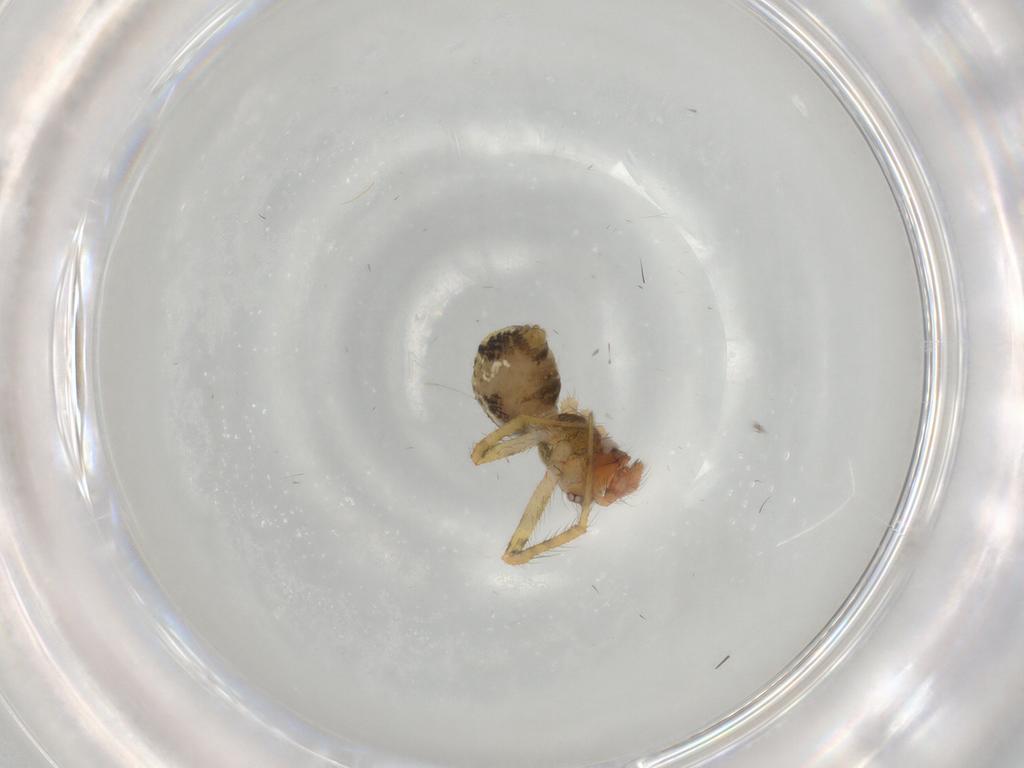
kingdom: Animalia
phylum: Arthropoda
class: Arachnida
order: Araneae
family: Theridiidae
